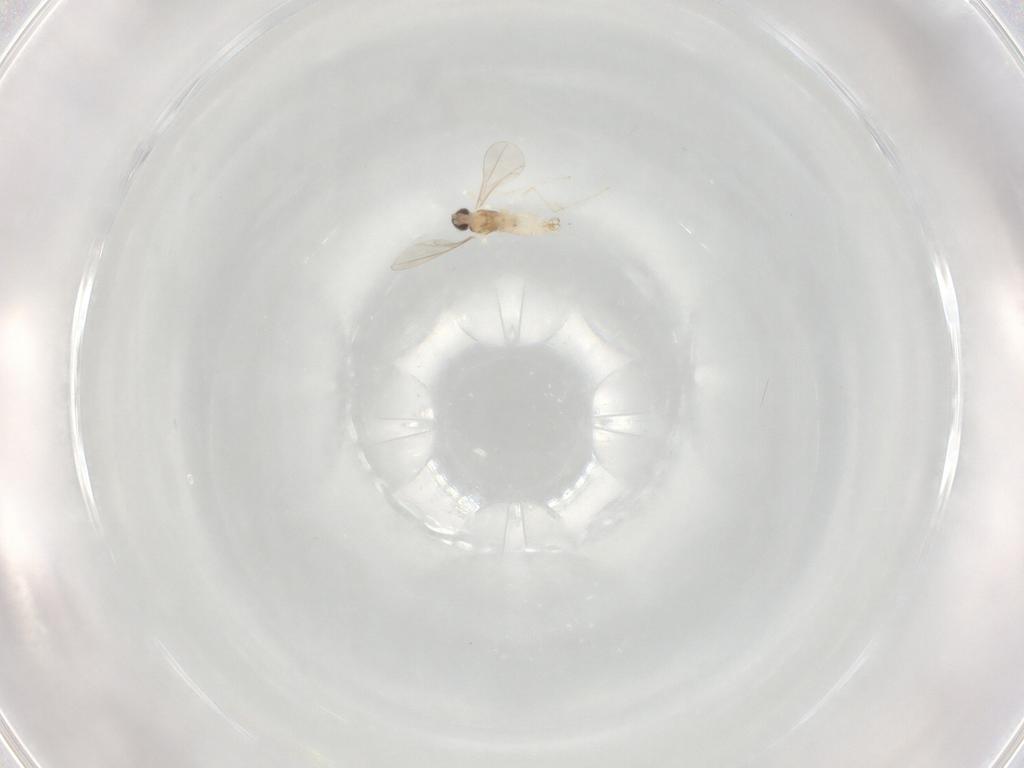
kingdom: Animalia
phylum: Arthropoda
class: Insecta
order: Diptera
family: Cecidomyiidae
